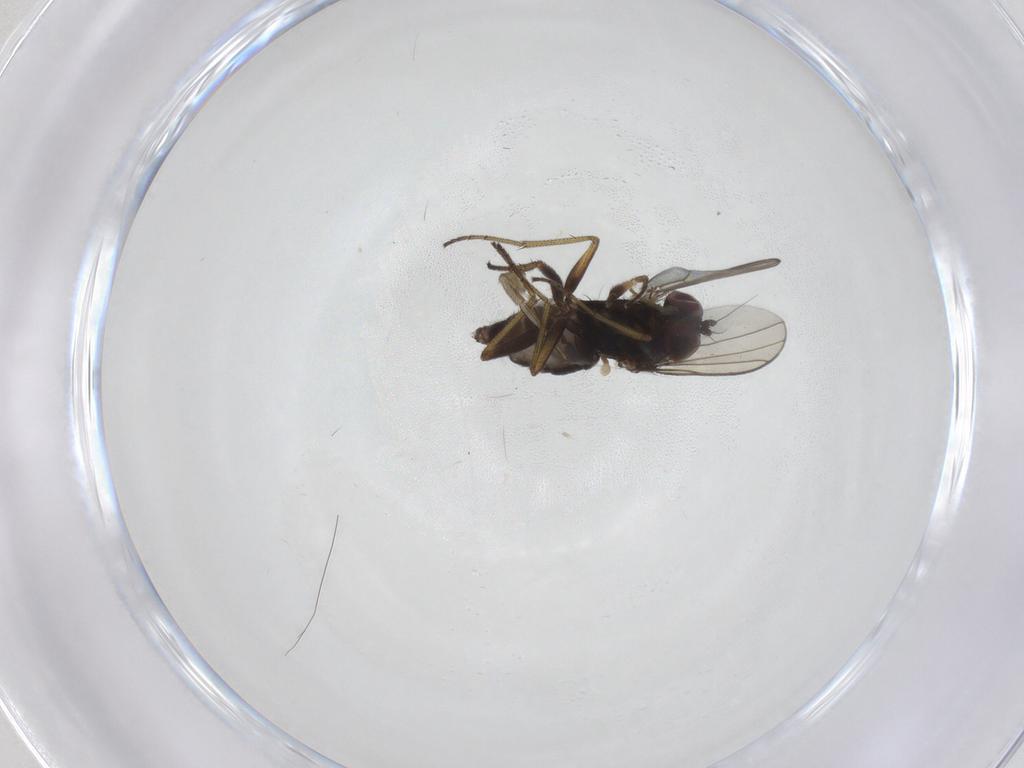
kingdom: Animalia
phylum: Arthropoda
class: Insecta
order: Diptera
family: Dolichopodidae
